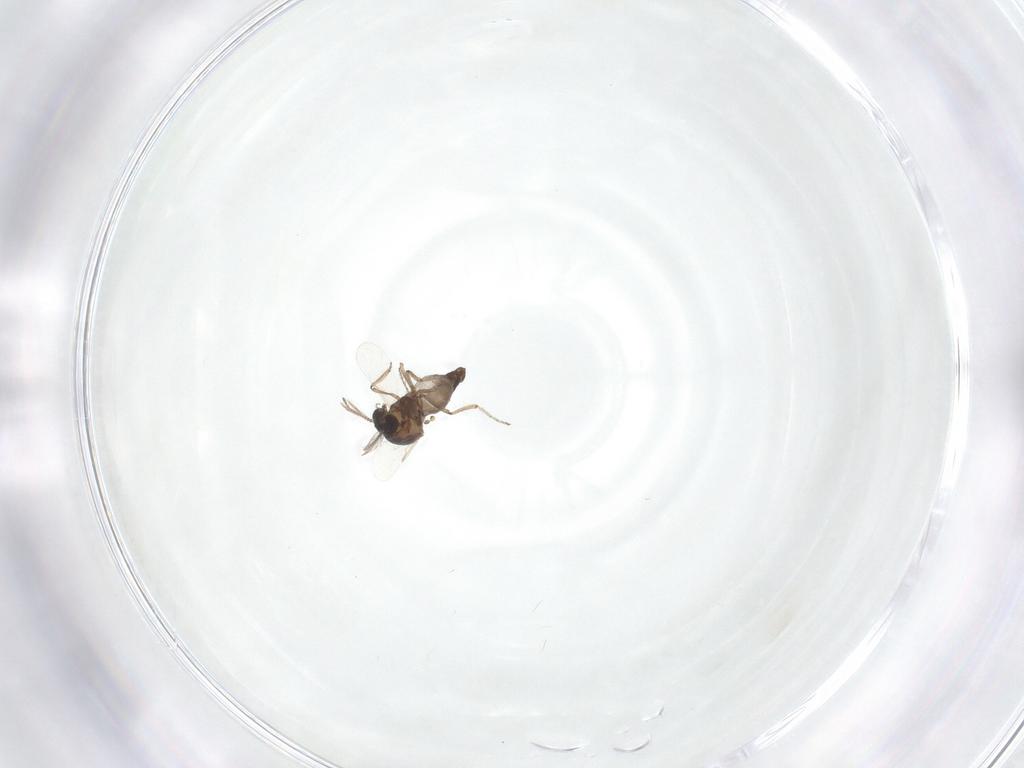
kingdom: Animalia
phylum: Arthropoda
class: Insecta
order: Diptera
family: Ceratopogonidae
